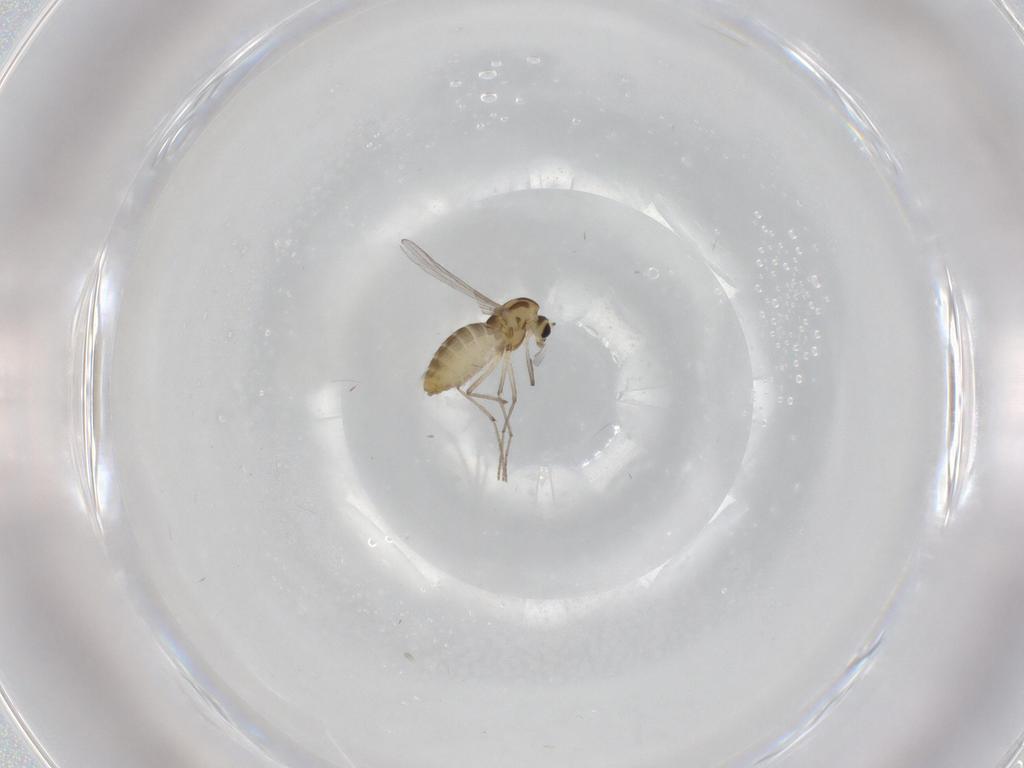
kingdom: Animalia
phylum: Arthropoda
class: Insecta
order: Diptera
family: Chironomidae
